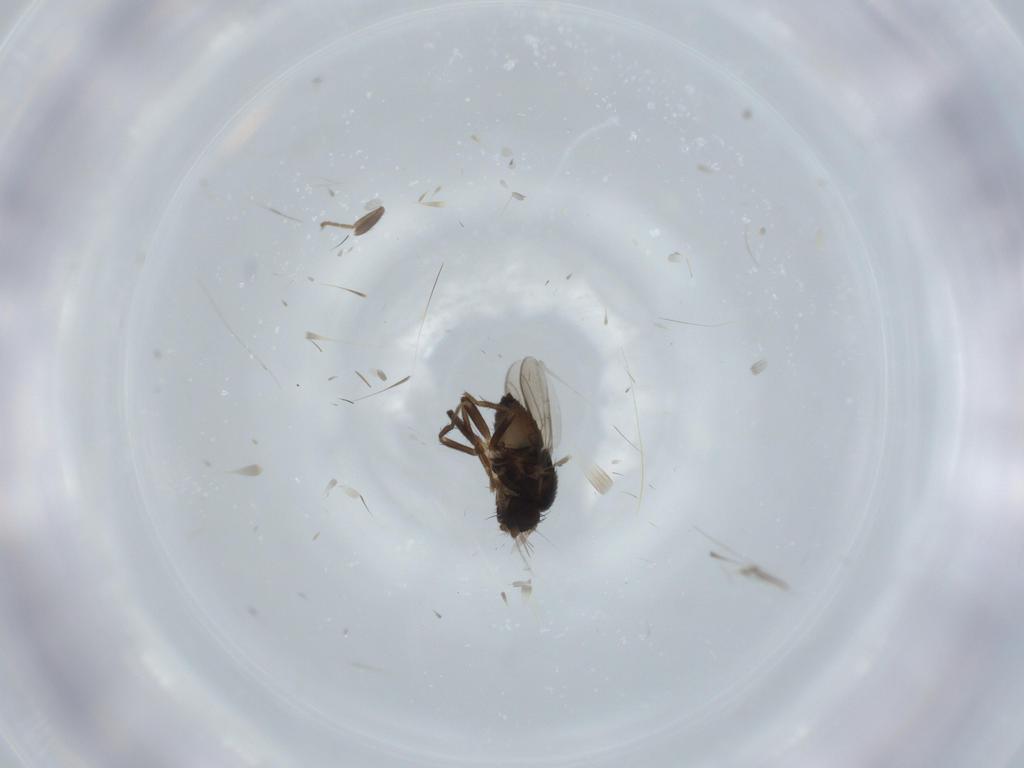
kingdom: Animalia
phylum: Arthropoda
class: Insecta
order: Diptera
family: Sphaeroceridae
